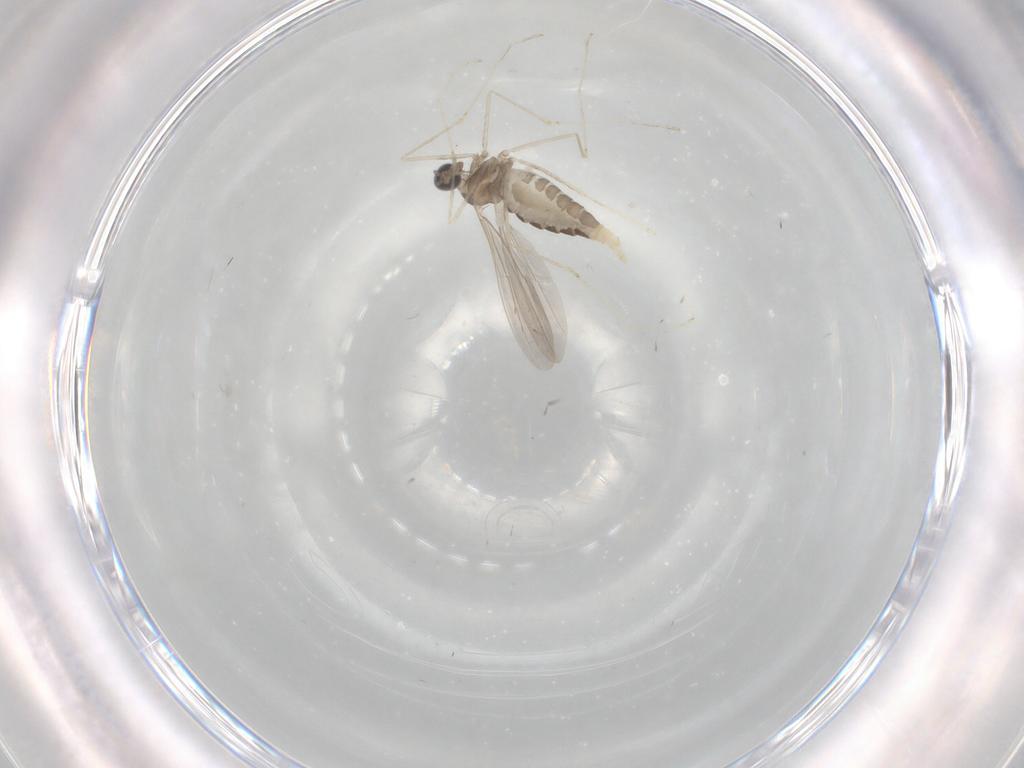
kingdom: Animalia
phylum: Arthropoda
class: Insecta
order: Diptera
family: Cecidomyiidae
